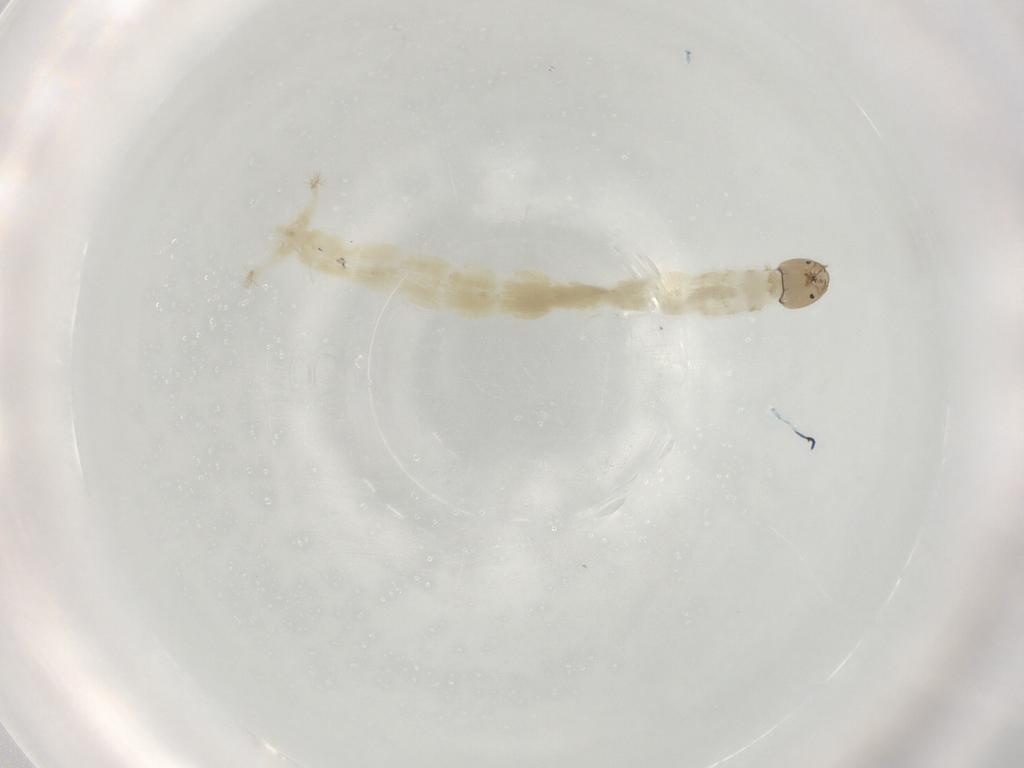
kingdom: Animalia
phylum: Arthropoda
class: Insecta
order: Diptera
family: Chironomidae
